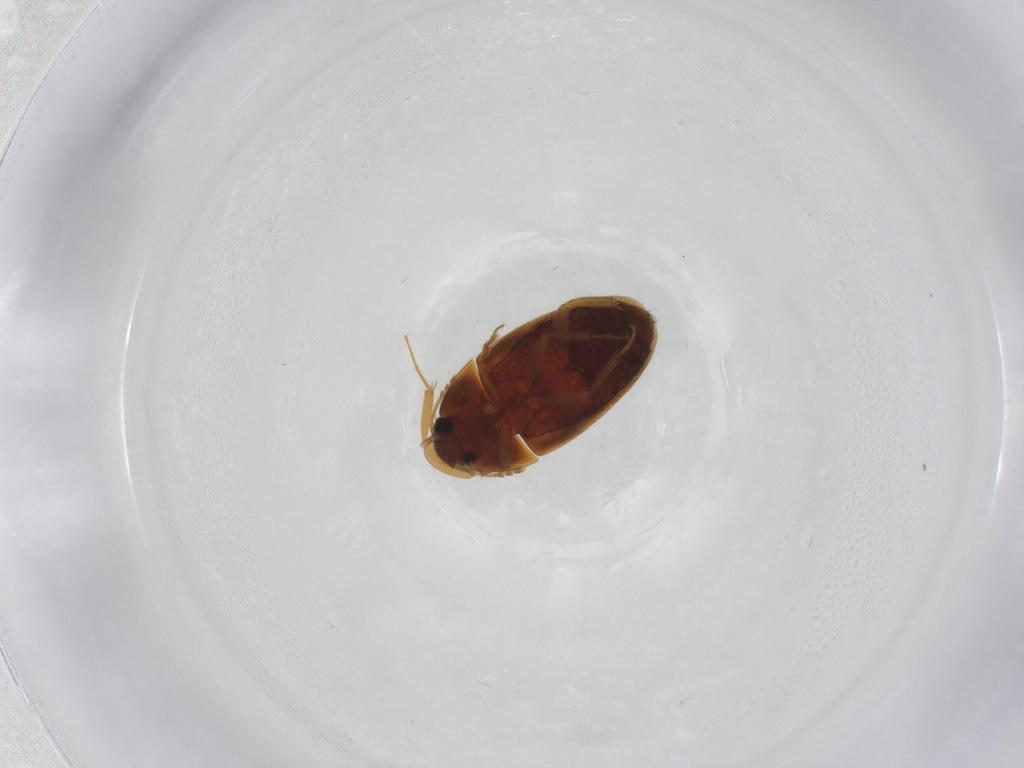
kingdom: Animalia
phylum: Arthropoda
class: Insecta
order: Coleoptera
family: Mycetophagidae
